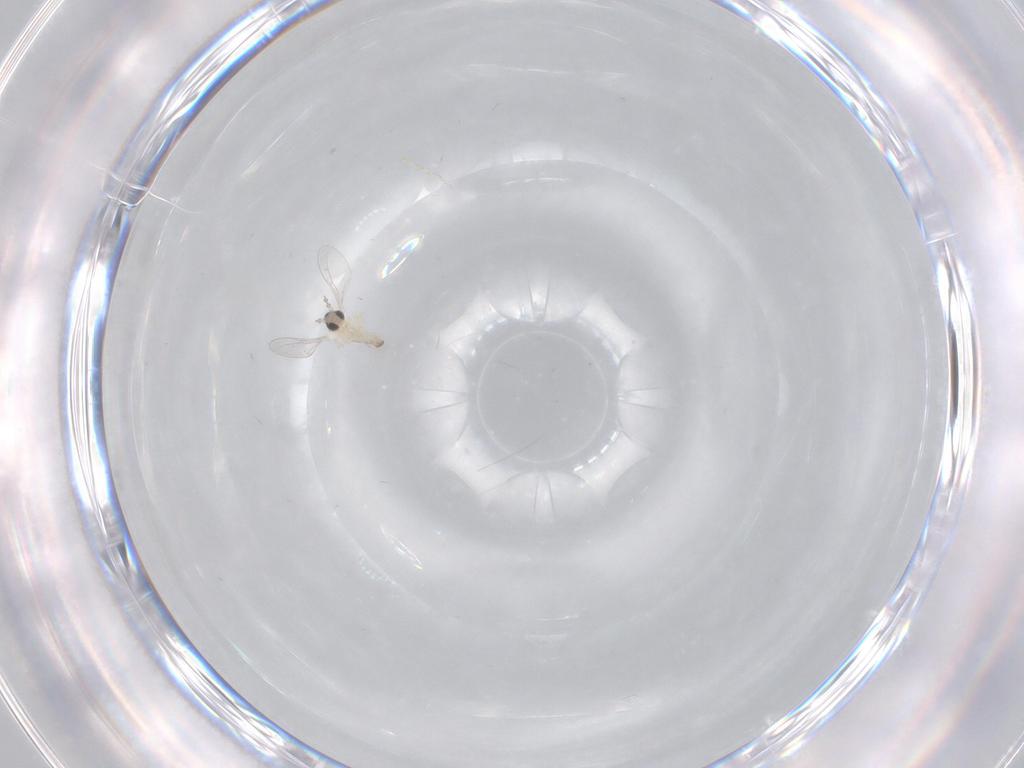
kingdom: Animalia
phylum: Arthropoda
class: Insecta
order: Diptera
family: Cecidomyiidae
